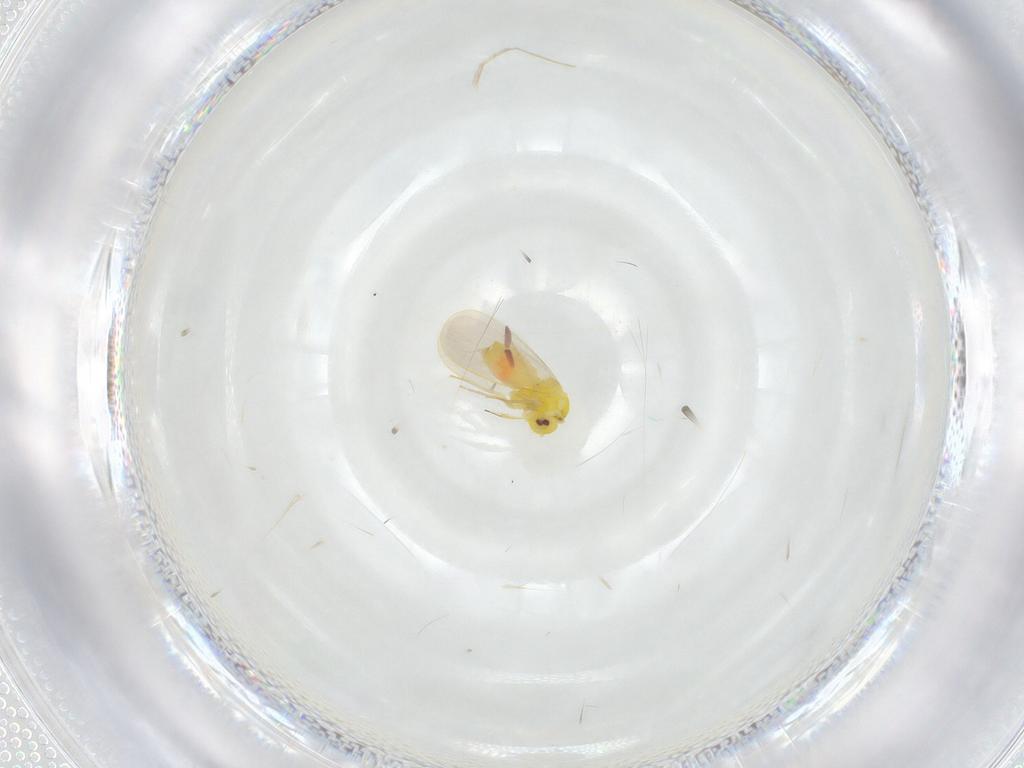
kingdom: Animalia
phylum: Arthropoda
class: Insecta
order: Hemiptera
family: Aleyrodidae
